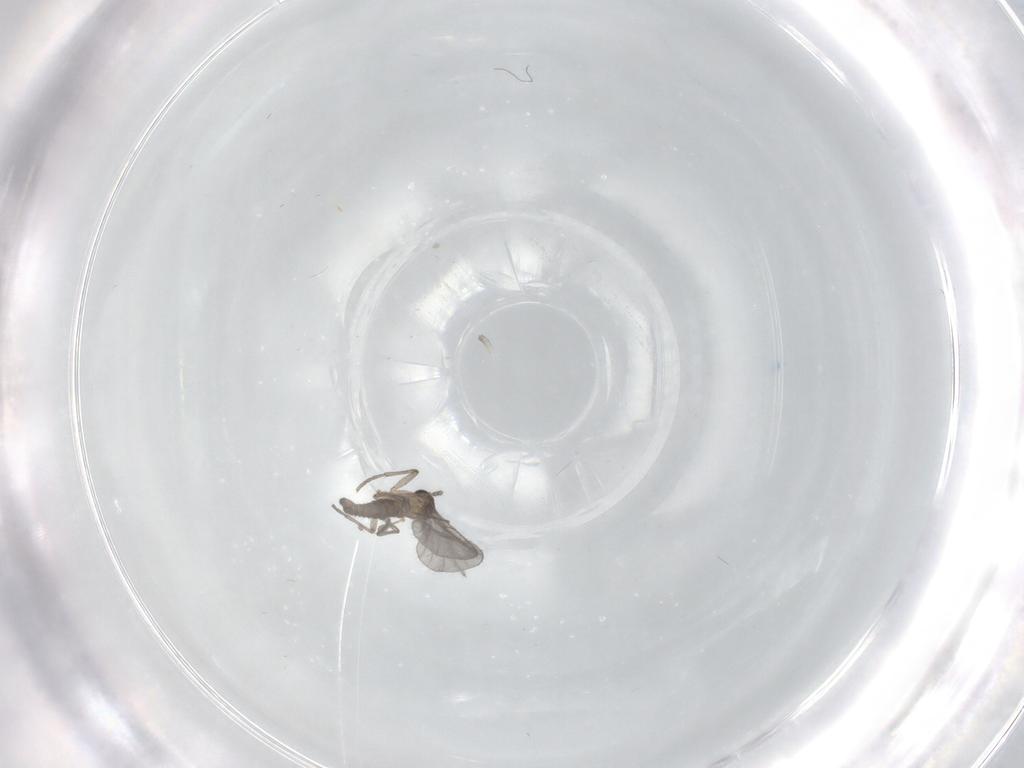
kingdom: Animalia
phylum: Arthropoda
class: Insecta
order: Diptera
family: Sciaridae
